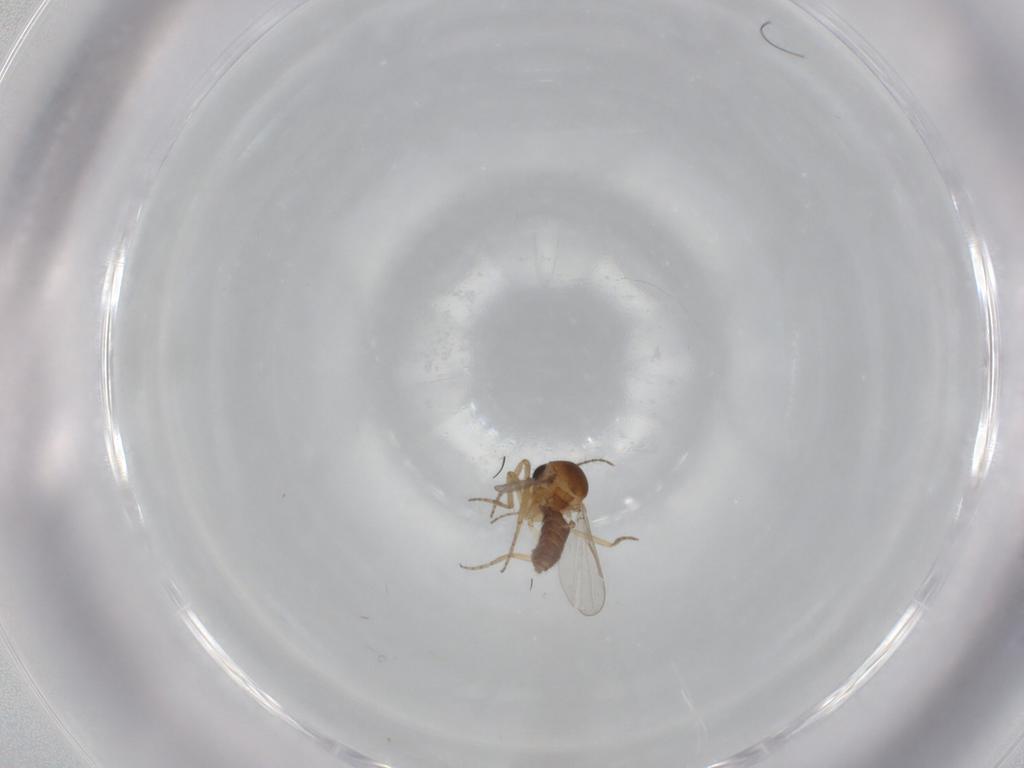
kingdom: Animalia
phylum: Arthropoda
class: Insecta
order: Diptera
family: Ceratopogonidae
